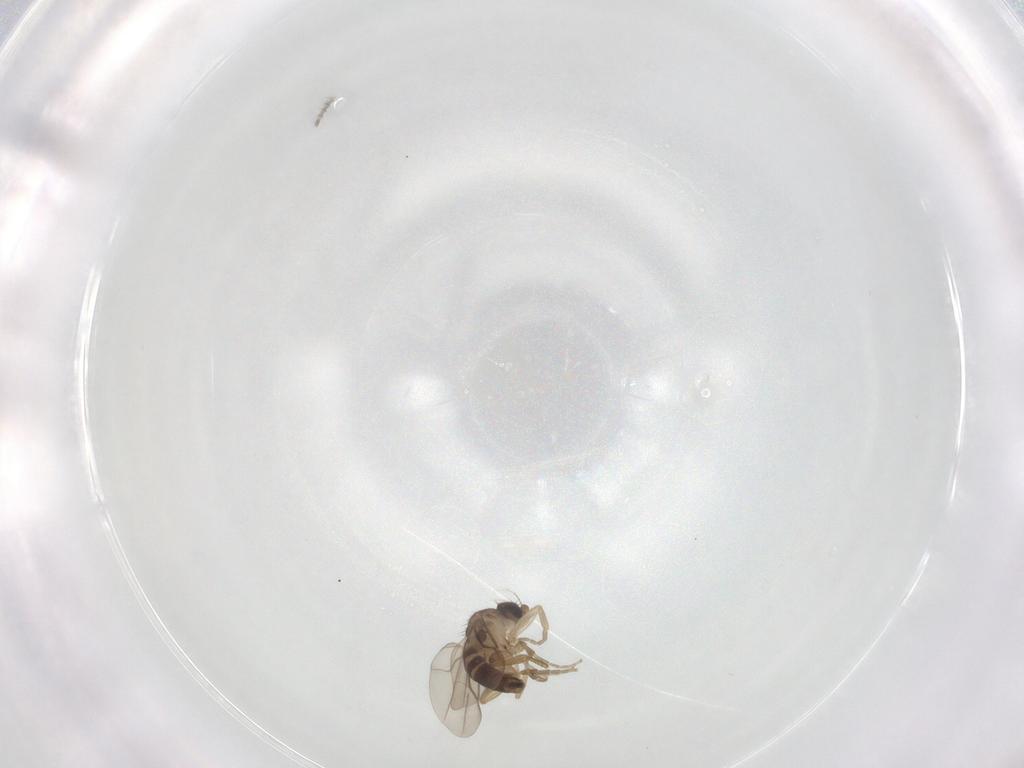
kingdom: Animalia
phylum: Arthropoda
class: Insecta
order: Diptera
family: Phoridae
